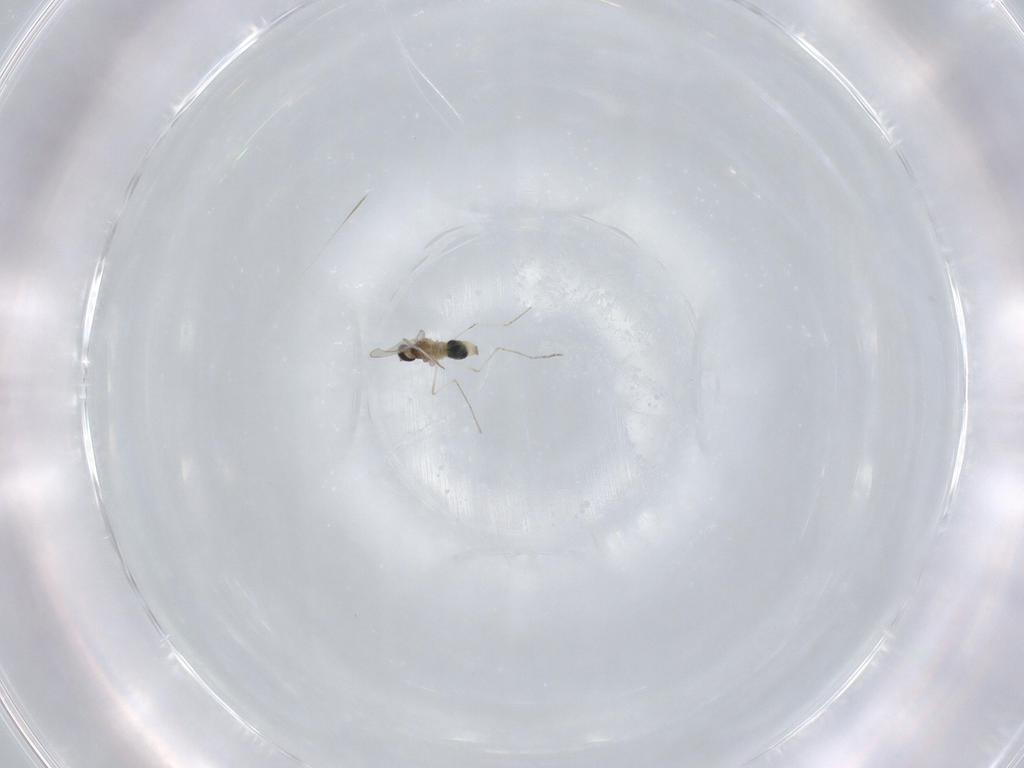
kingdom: Animalia
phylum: Arthropoda
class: Insecta
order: Diptera
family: Cecidomyiidae
